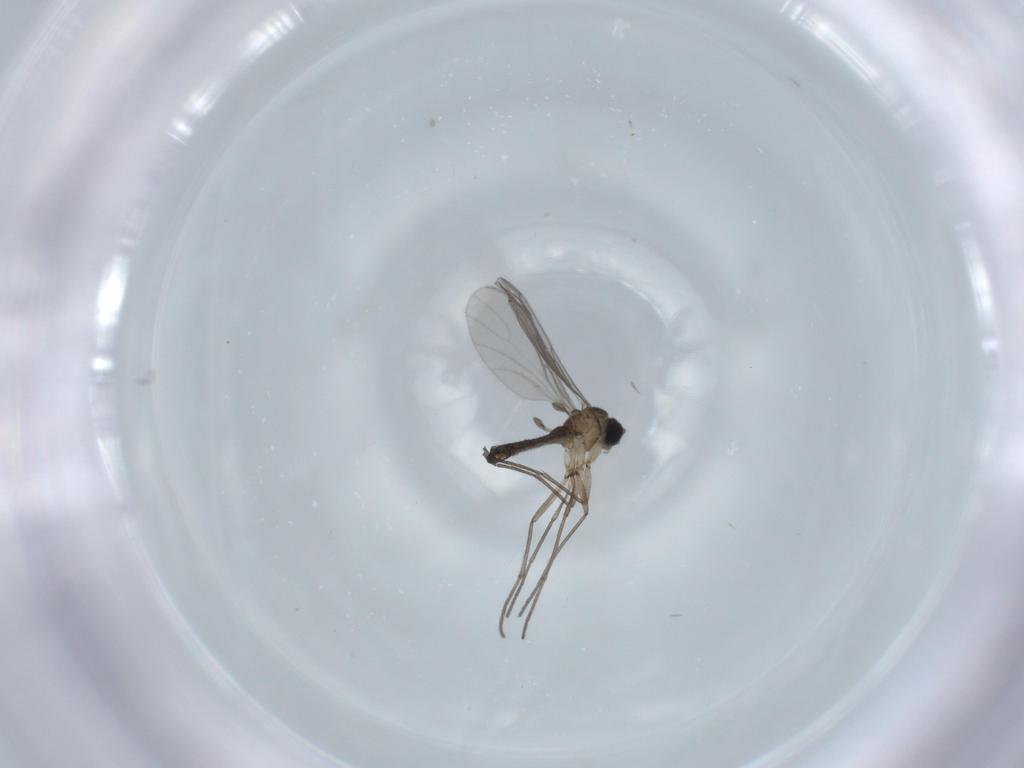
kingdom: Animalia
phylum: Arthropoda
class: Insecta
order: Diptera
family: Sciaridae
